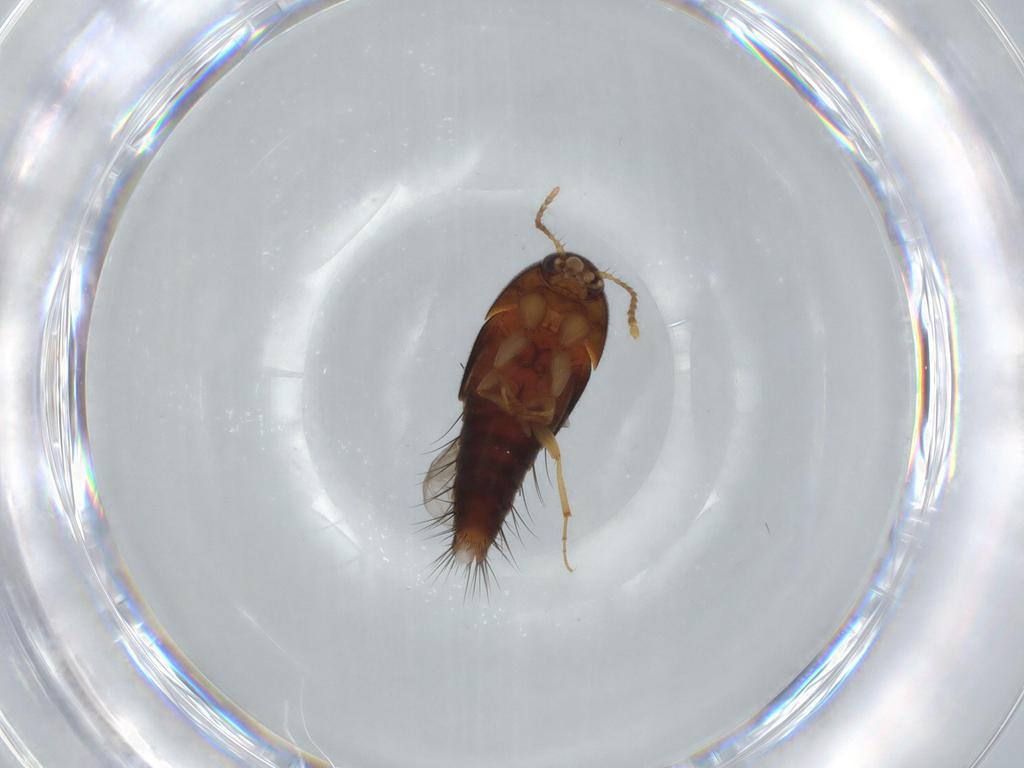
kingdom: Animalia
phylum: Arthropoda
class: Insecta
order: Coleoptera
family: Staphylinidae
